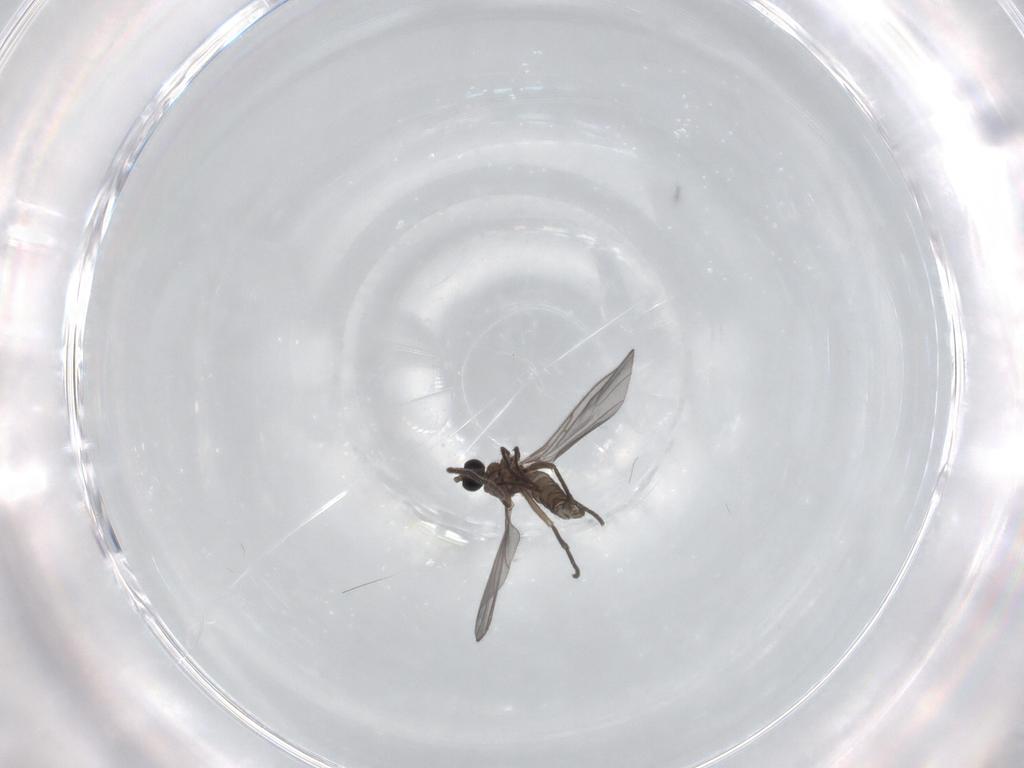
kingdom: Animalia
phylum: Arthropoda
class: Insecta
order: Diptera
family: Sciaridae
